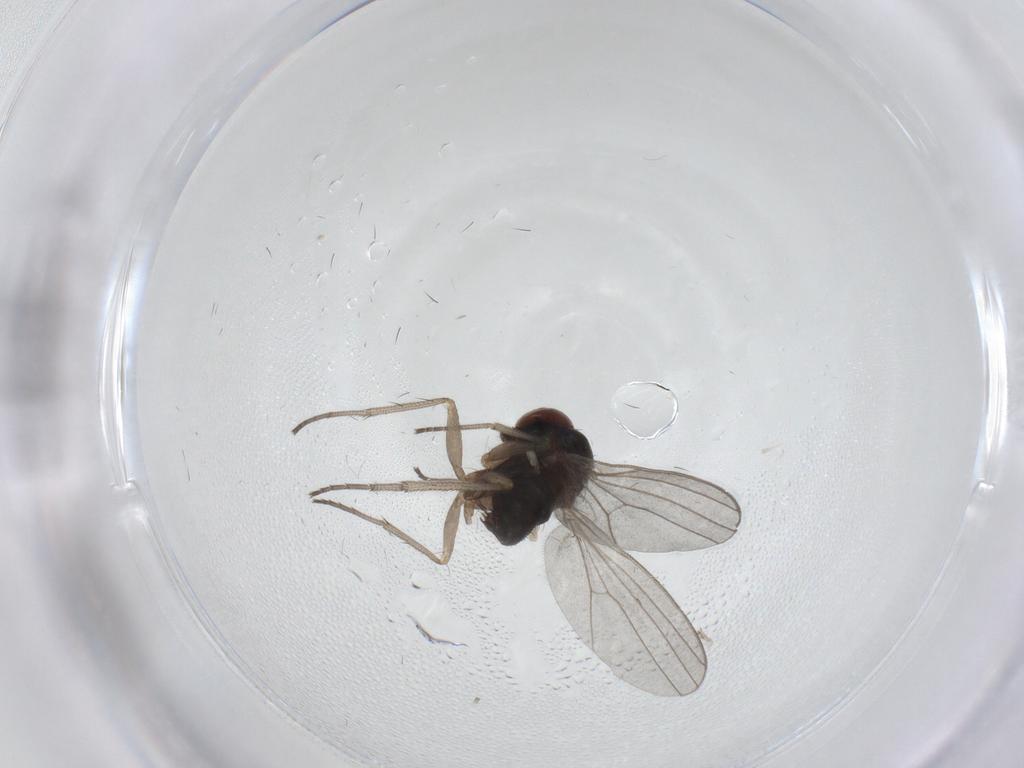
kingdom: Animalia
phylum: Arthropoda
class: Insecta
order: Diptera
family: Dolichopodidae
